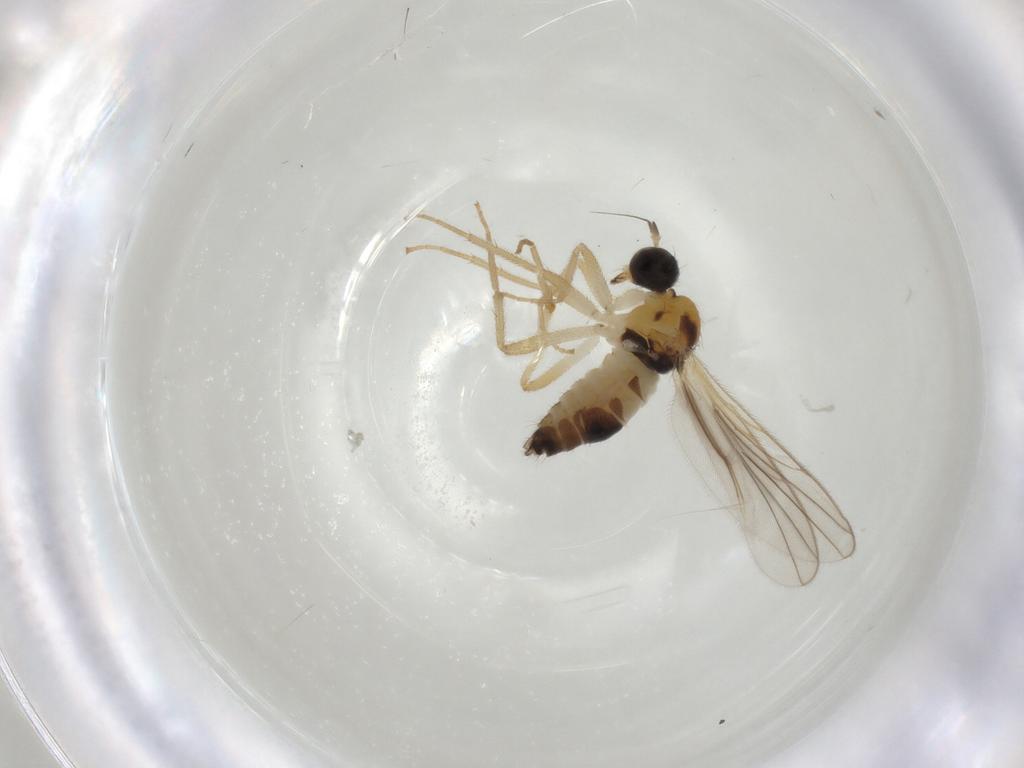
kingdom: Animalia
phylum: Arthropoda
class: Insecta
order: Diptera
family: Hybotidae
